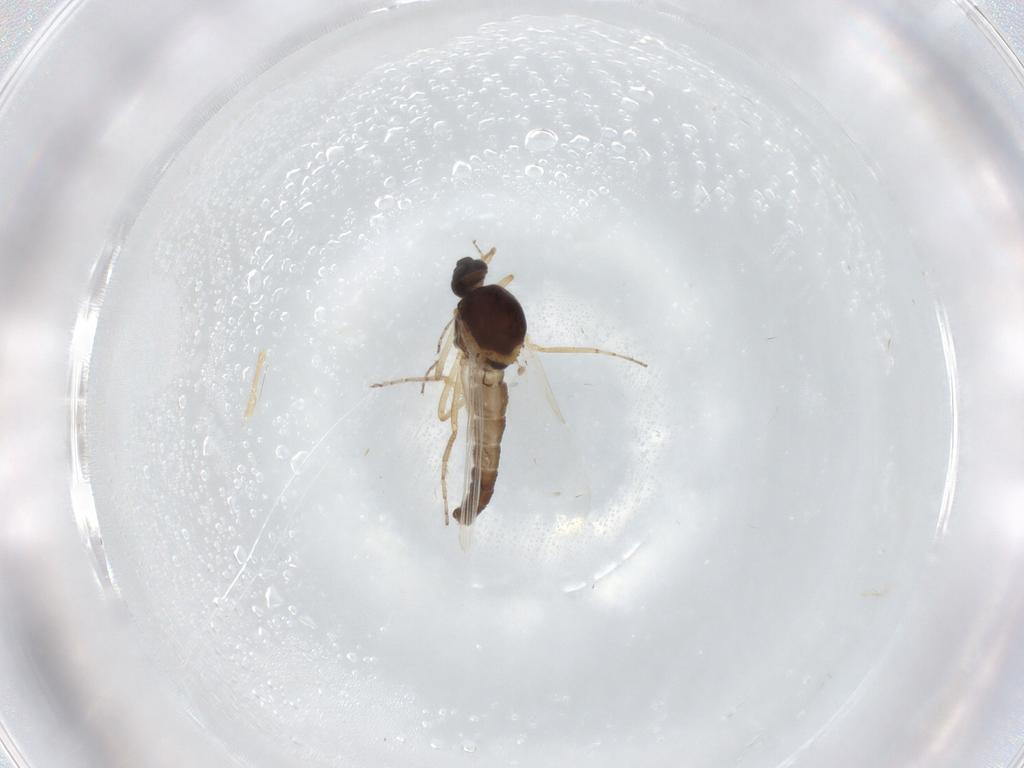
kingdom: Animalia
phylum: Arthropoda
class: Insecta
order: Diptera
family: Ceratopogonidae
